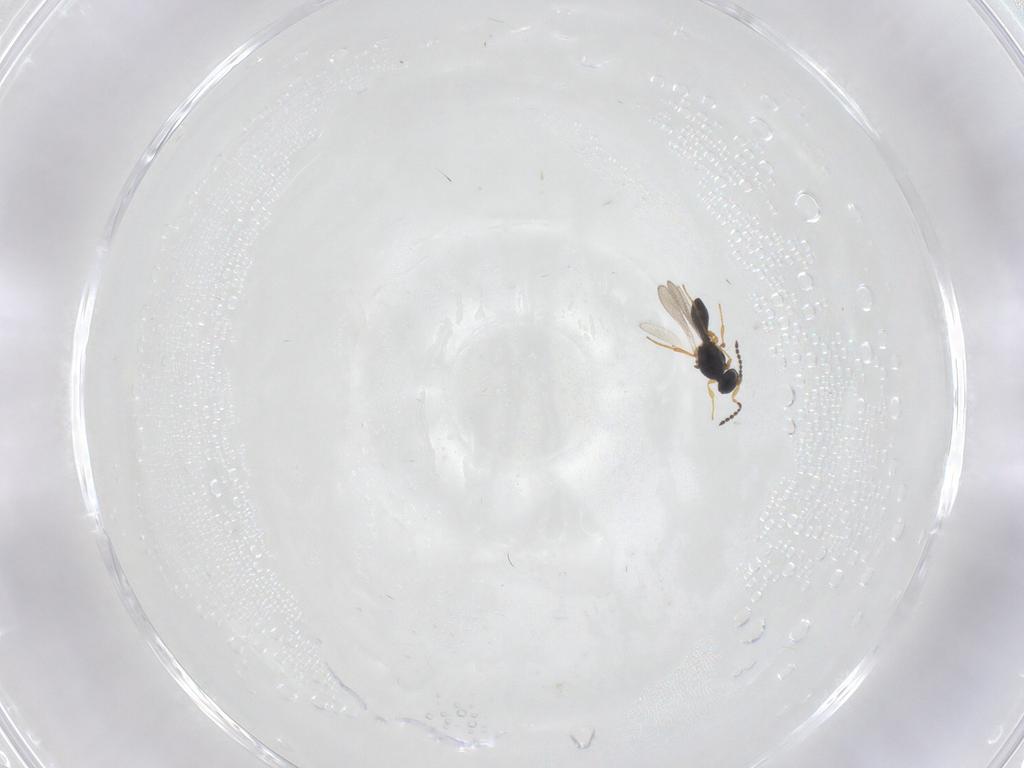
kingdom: Animalia
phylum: Arthropoda
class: Insecta
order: Hymenoptera
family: Platygastridae
